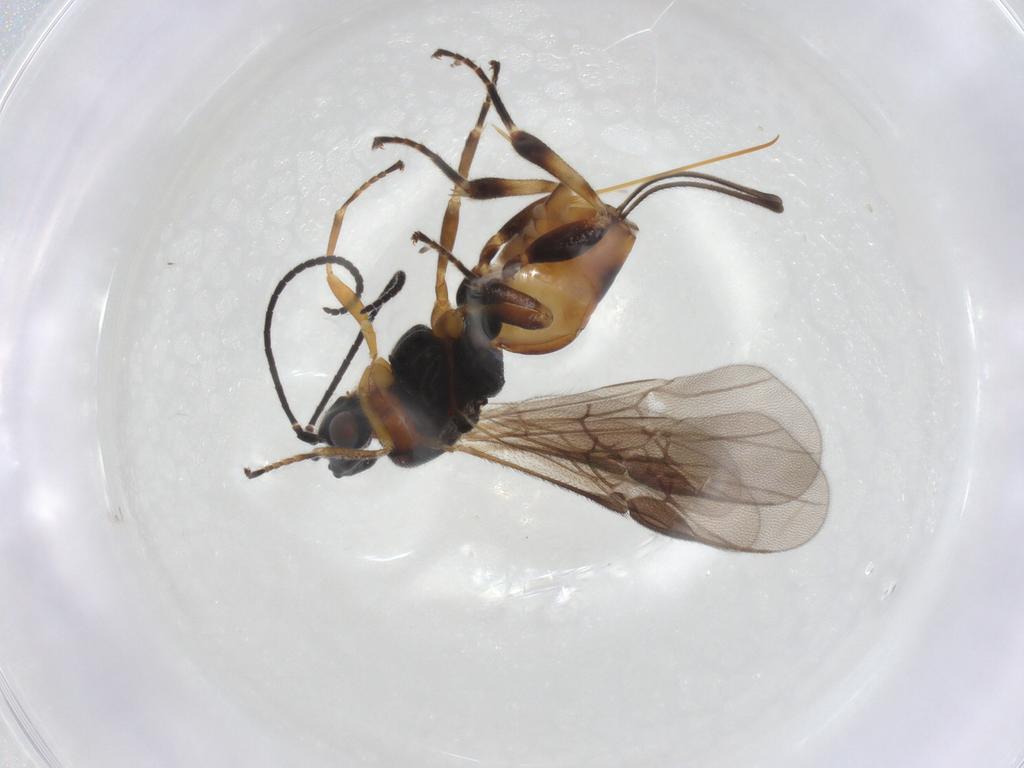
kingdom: Animalia
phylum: Arthropoda
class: Insecta
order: Hymenoptera
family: Braconidae
